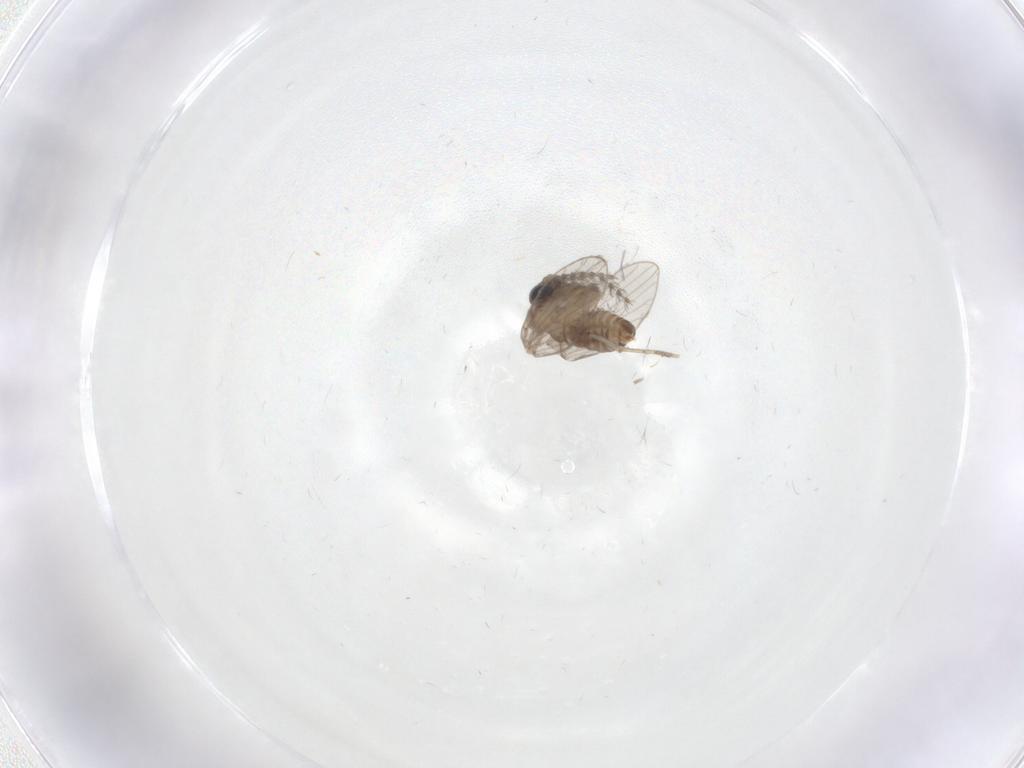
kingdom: Animalia
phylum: Arthropoda
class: Insecta
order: Diptera
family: Psychodidae
